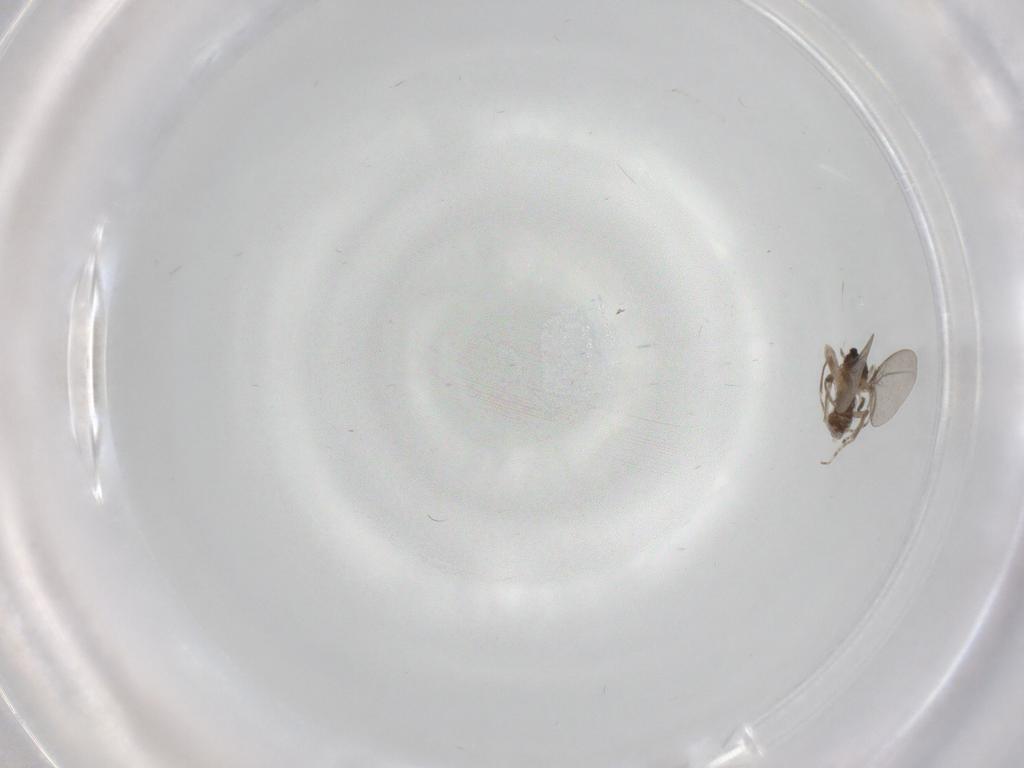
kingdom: Animalia
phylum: Arthropoda
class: Insecta
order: Diptera
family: Cecidomyiidae
